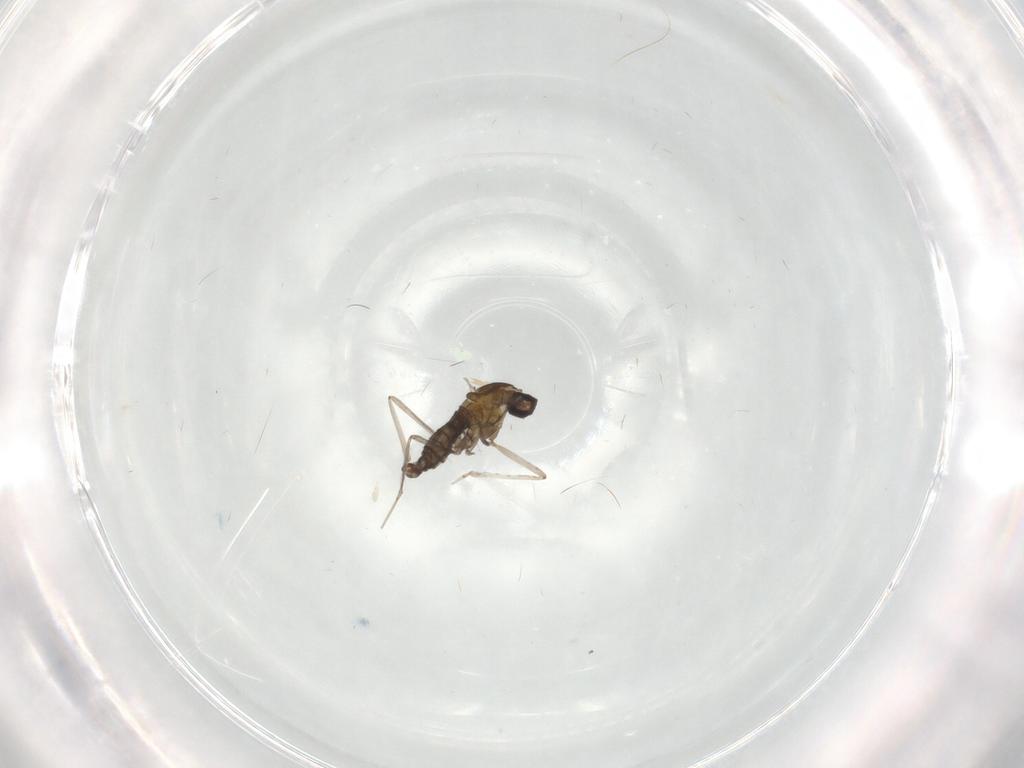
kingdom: Animalia
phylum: Arthropoda
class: Insecta
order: Diptera
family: Cecidomyiidae
